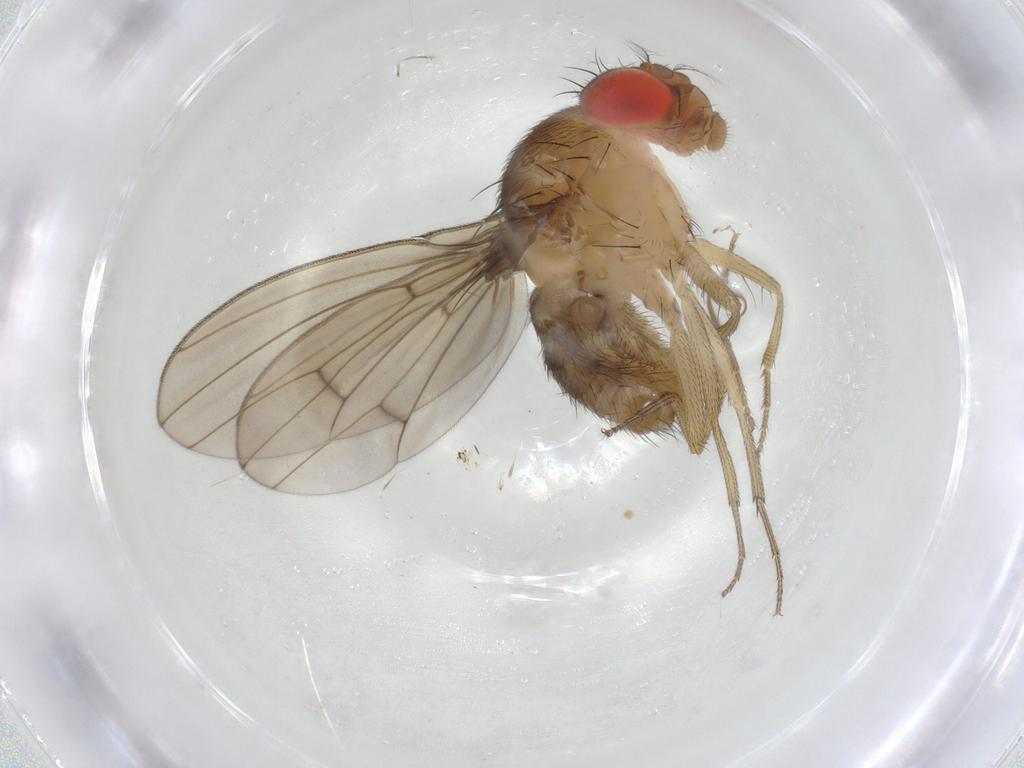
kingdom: Animalia
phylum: Arthropoda
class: Insecta
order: Diptera
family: Drosophilidae
